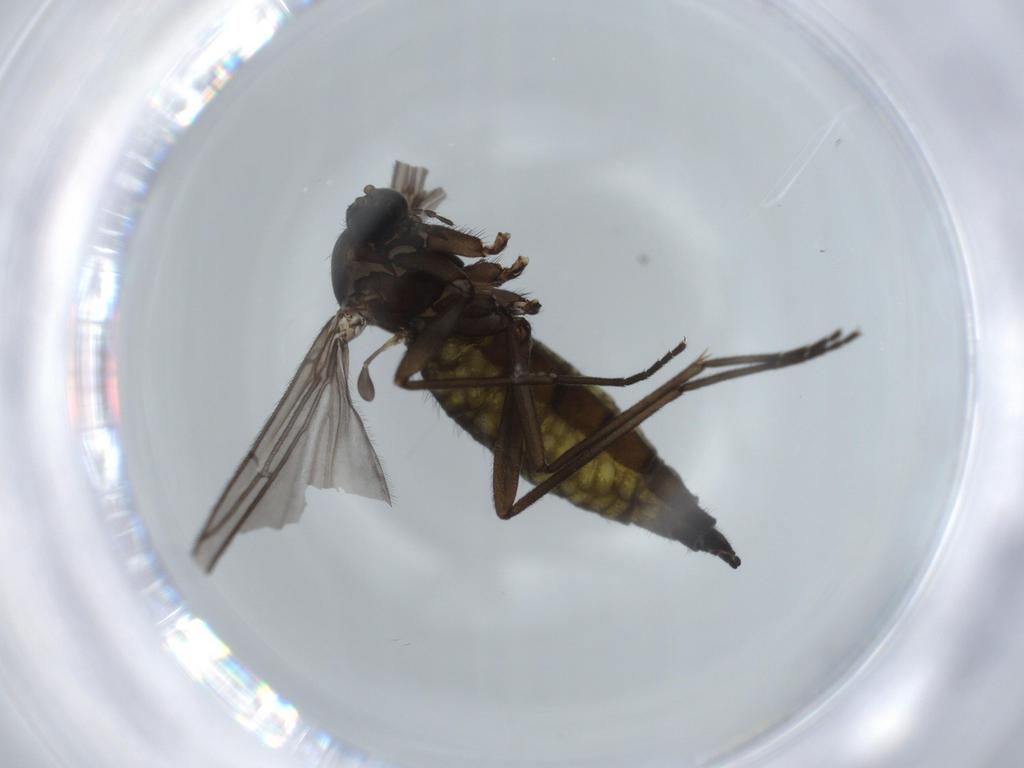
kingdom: Animalia
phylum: Arthropoda
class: Insecta
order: Diptera
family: Sciaridae
